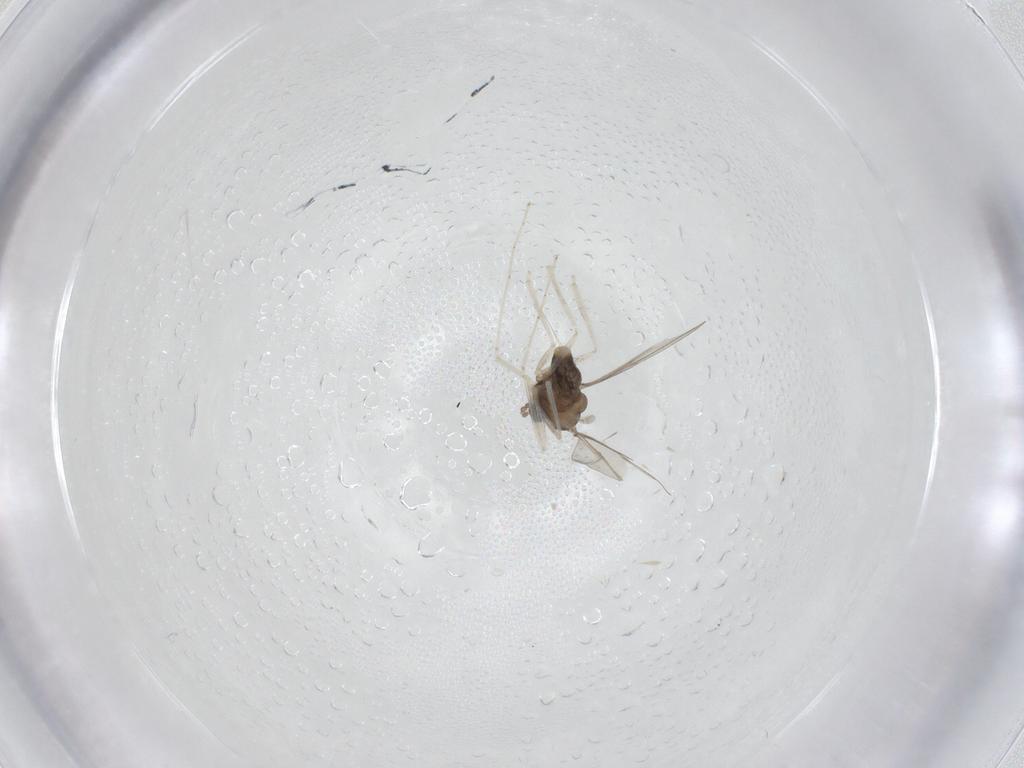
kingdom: Animalia
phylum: Arthropoda
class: Insecta
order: Diptera
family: Cecidomyiidae
